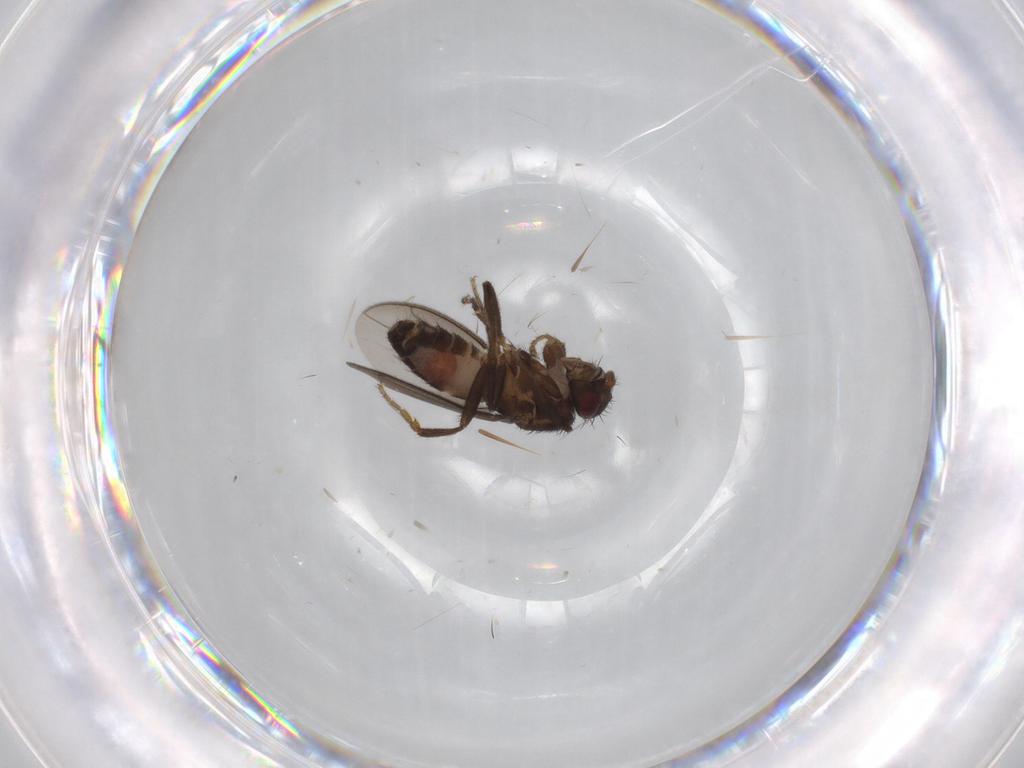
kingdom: Animalia
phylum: Arthropoda
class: Insecta
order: Diptera
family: Sphaeroceridae
